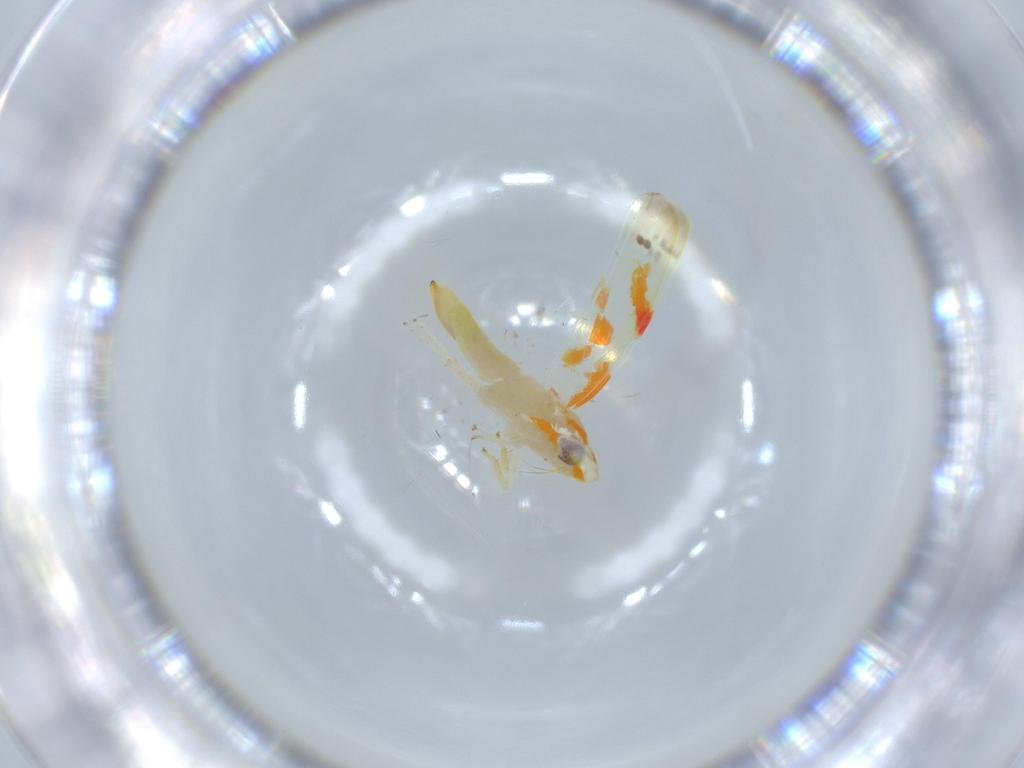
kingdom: Animalia
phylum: Arthropoda
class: Insecta
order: Hemiptera
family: Cicadellidae
